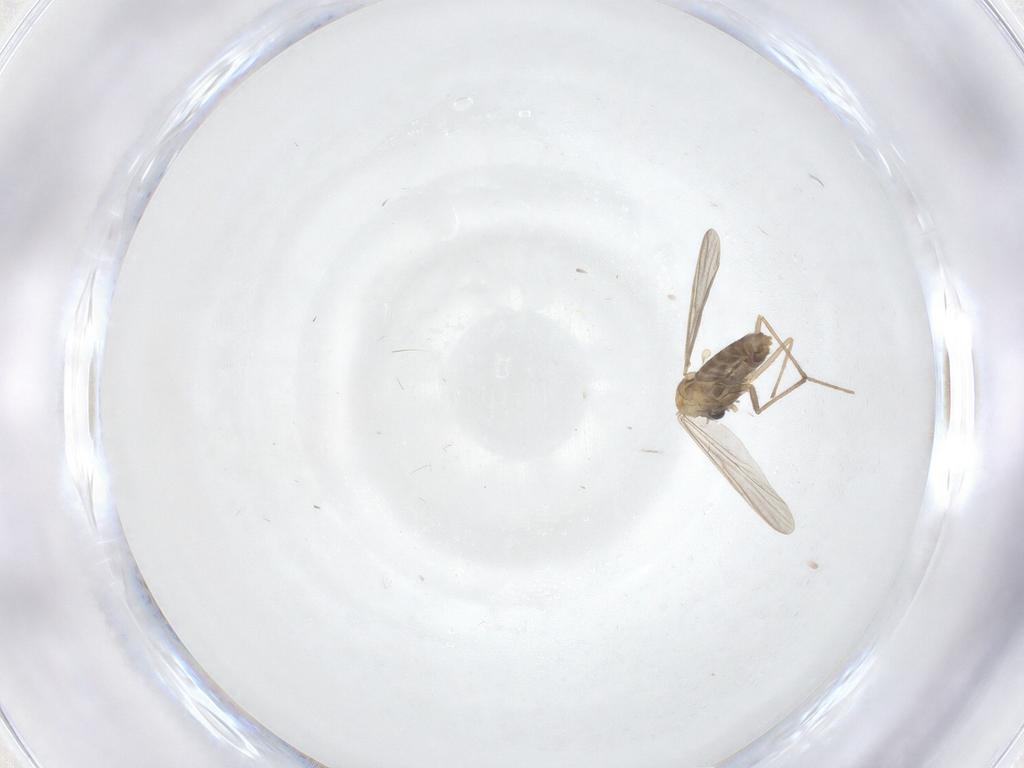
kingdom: Animalia
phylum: Arthropoda
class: Insecta
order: Diptera
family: Chironomidae
